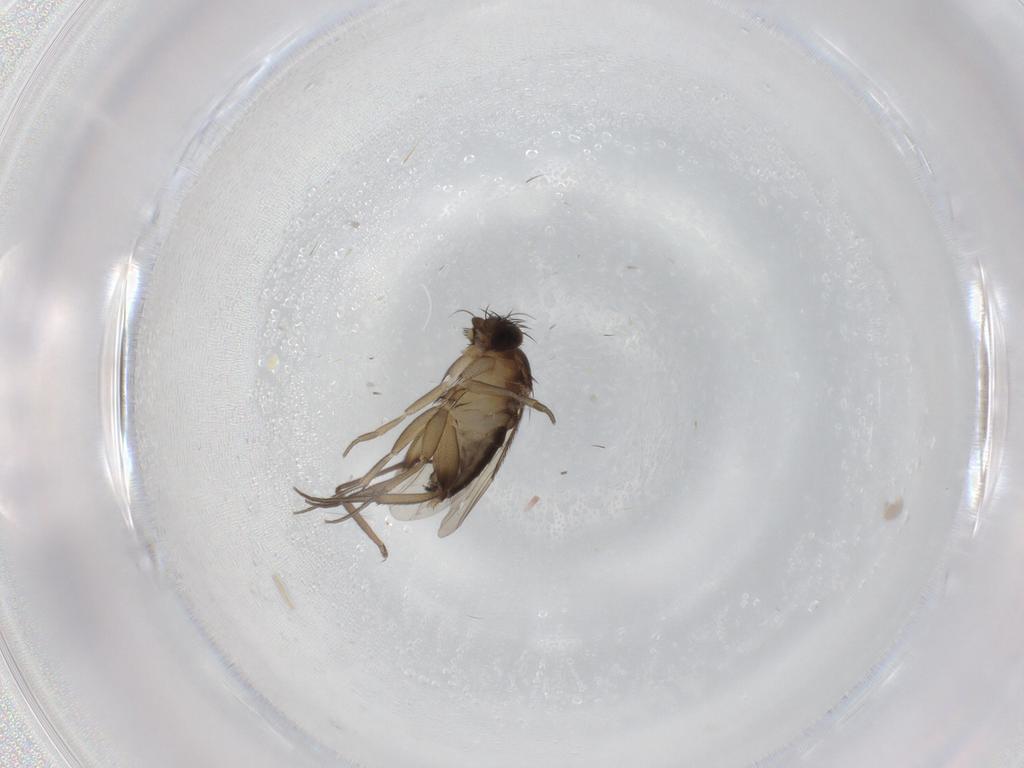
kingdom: Animalia
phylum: Arthropoda
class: Insecta
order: Diptera
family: Phoridae
